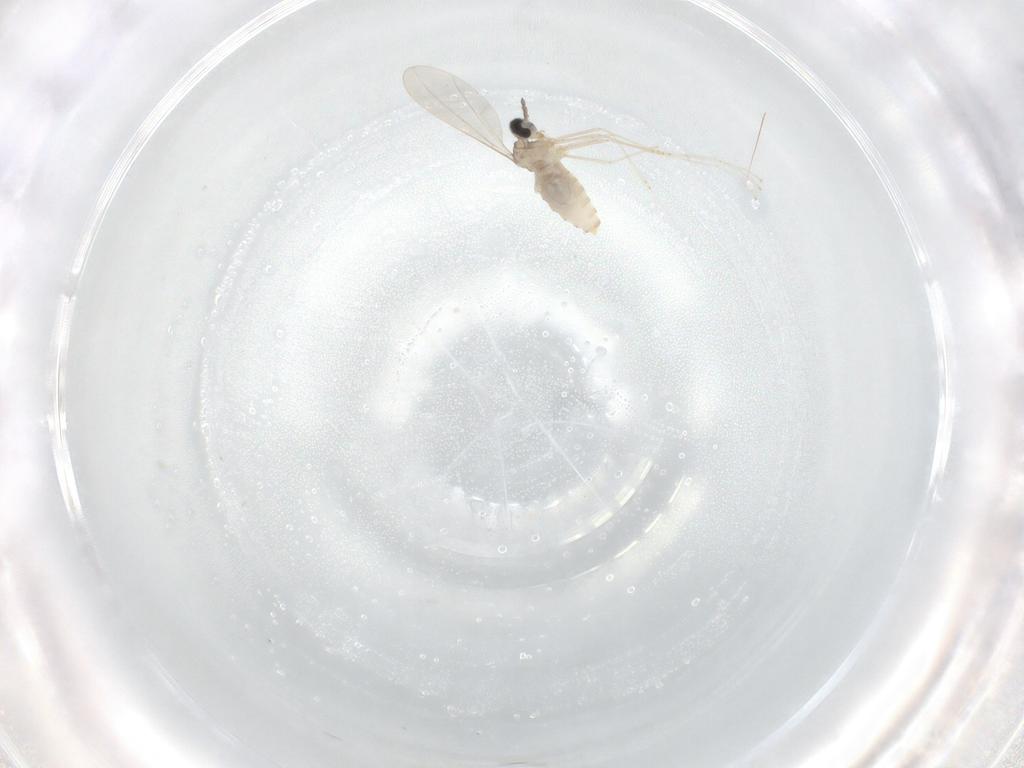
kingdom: Animalia
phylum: Arthropoda
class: Insecta
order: Diptera
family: Cecidomyiidae
